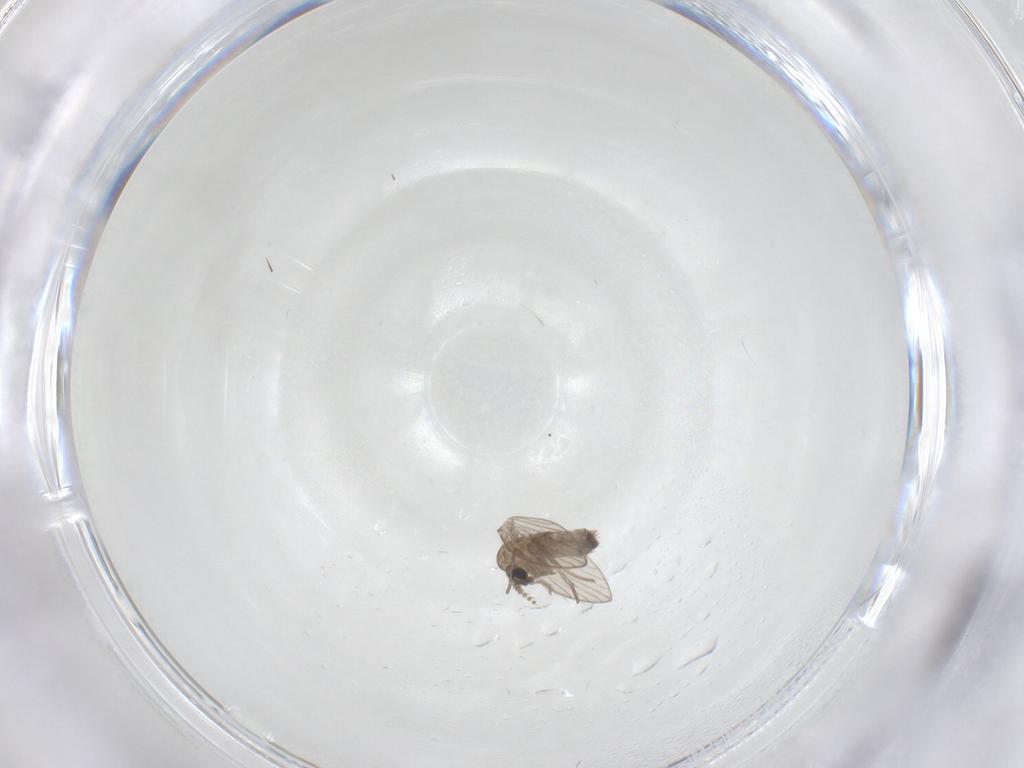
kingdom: Animalia
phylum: Arthropoda
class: Insecta
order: Diptera
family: Psychodidae
